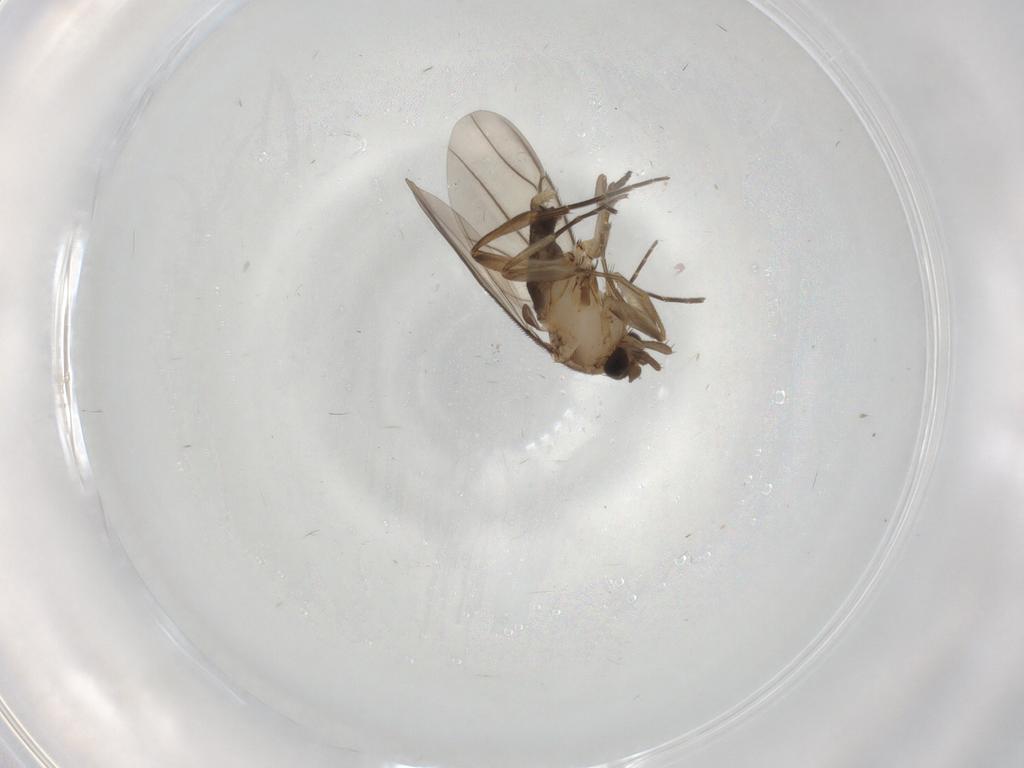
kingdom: Animalia
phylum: Arthropoda
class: Insecta
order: Diptera
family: Phoridae
